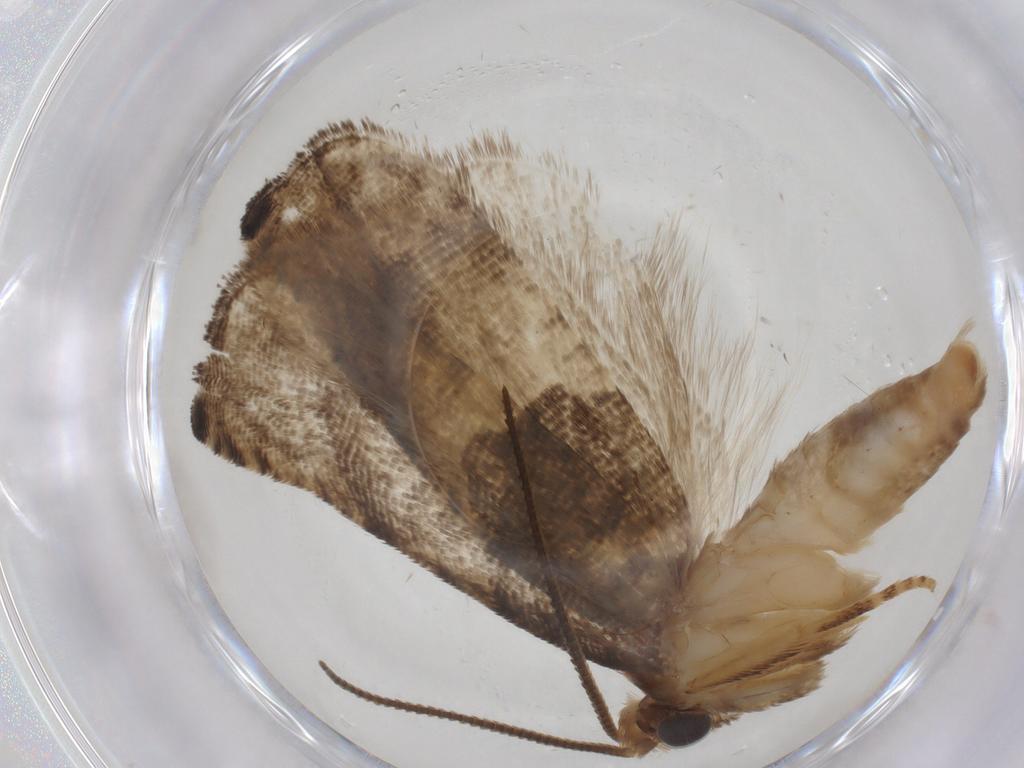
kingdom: Animalia
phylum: Arthropoda
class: Insecta
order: Lepidoptera
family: Tortricidae
